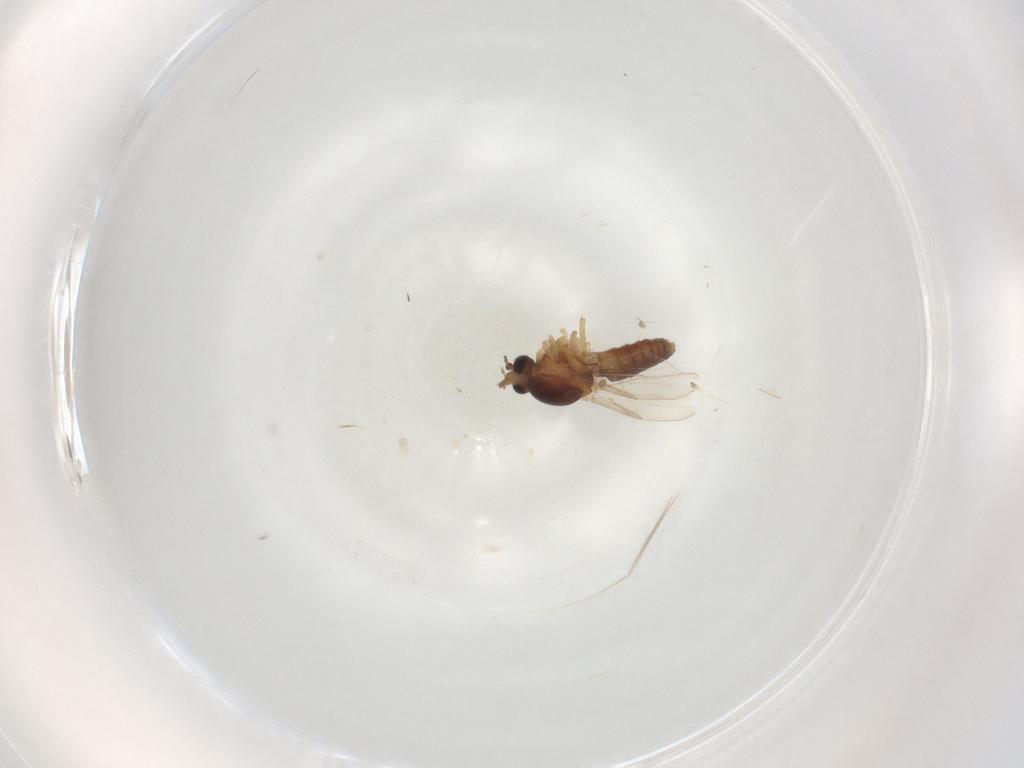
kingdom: Animalia
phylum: Arthropoda
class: Insecta
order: Diptera
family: Ceratopogonidae
